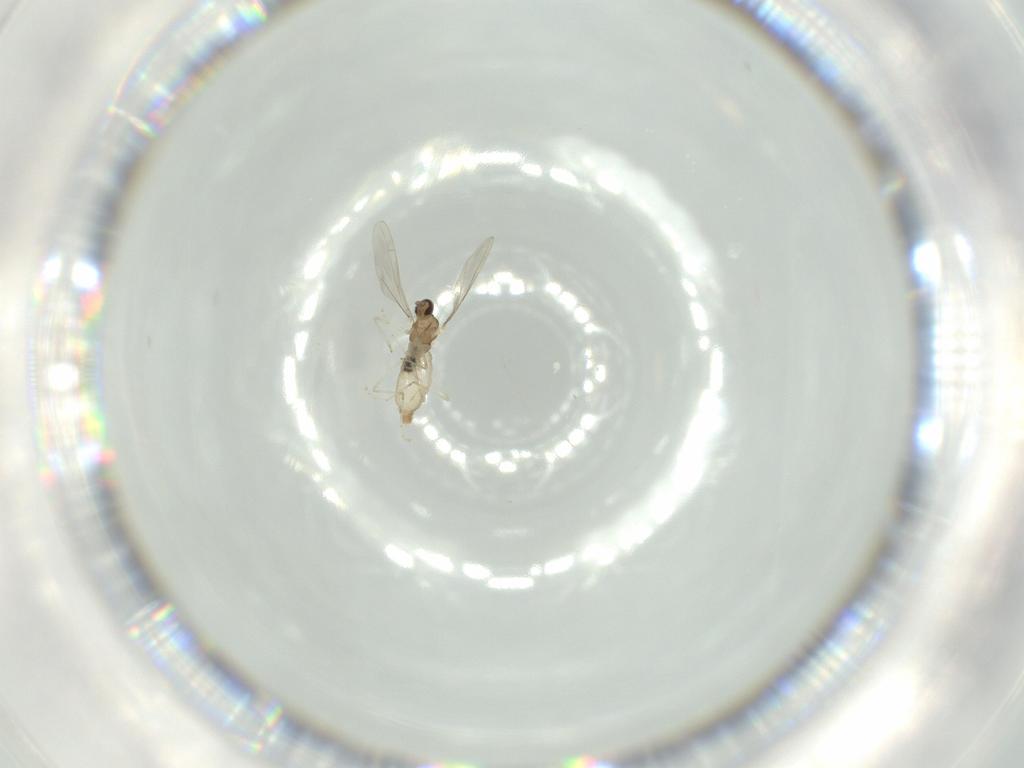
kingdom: Animalia
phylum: Arthropoda
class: Insecta
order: Diptera
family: Cecidomyiidae
